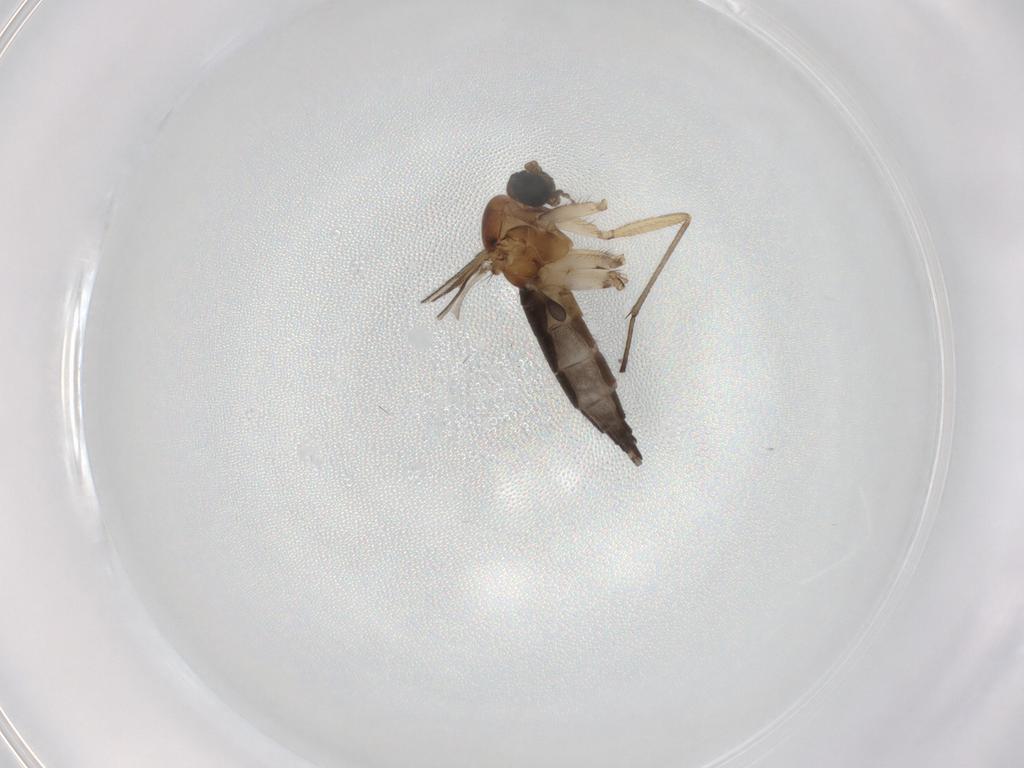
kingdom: Animalia
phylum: Arthropoda
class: Insecta
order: Diptera
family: Sciaridae
